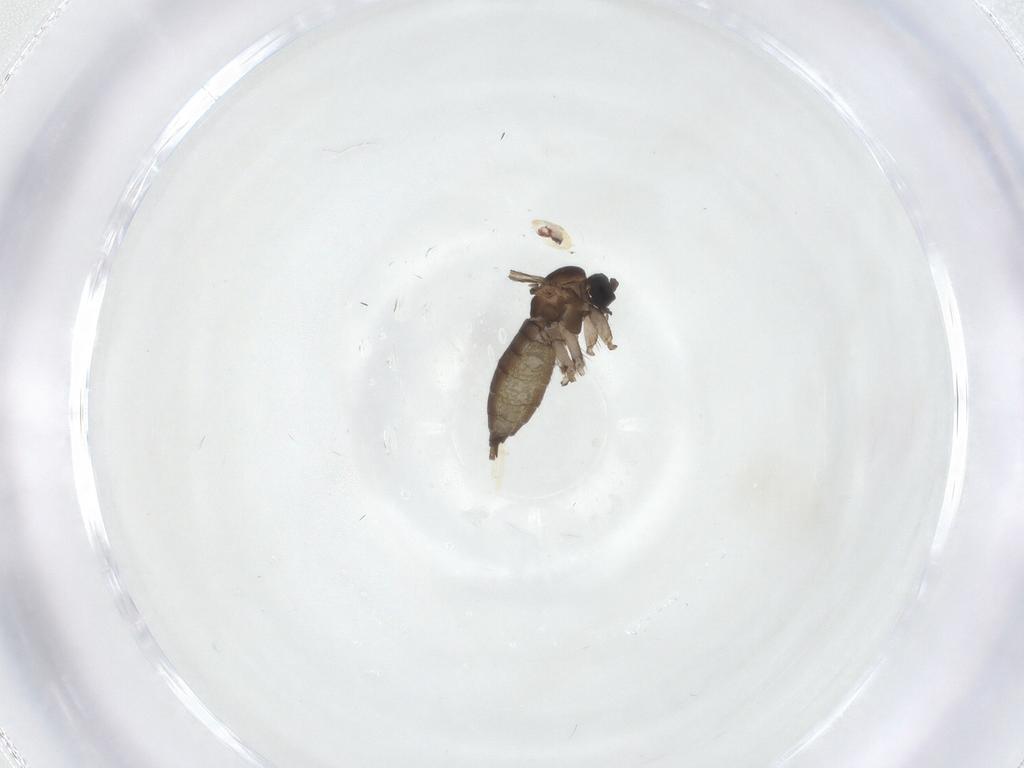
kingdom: Animalia
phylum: Arthropoda
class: Insecta
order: Diptera
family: Sciaridae
